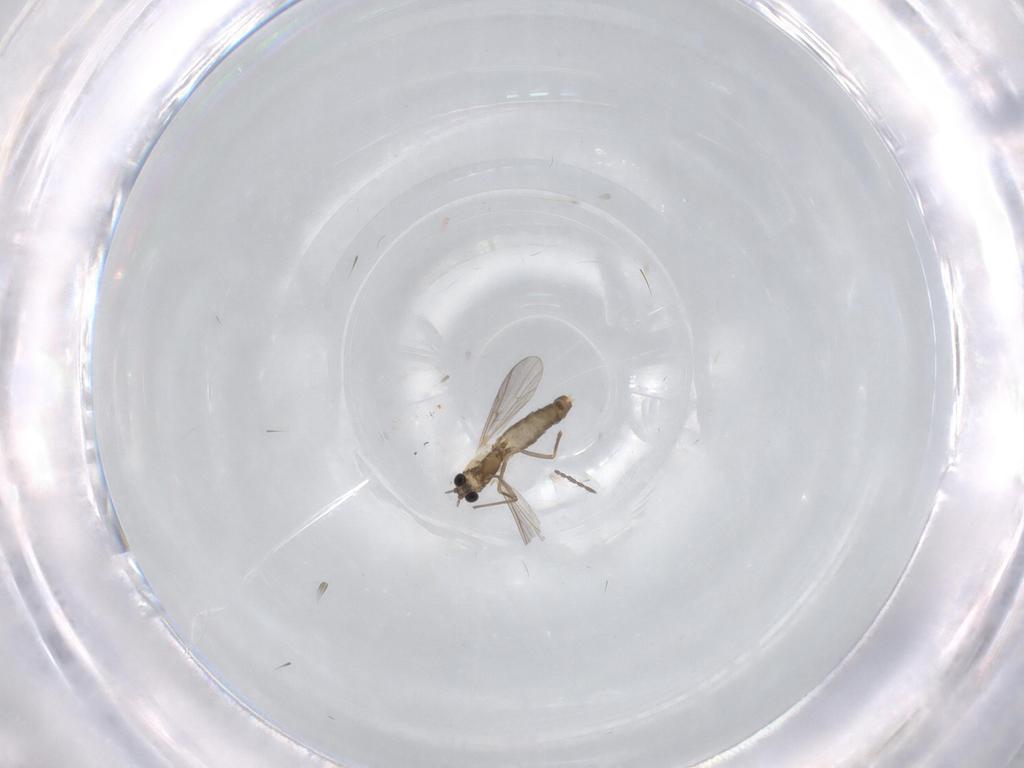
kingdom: Animalia
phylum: Arthropoda
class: Insecta
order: Diptera
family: Chironomidae
